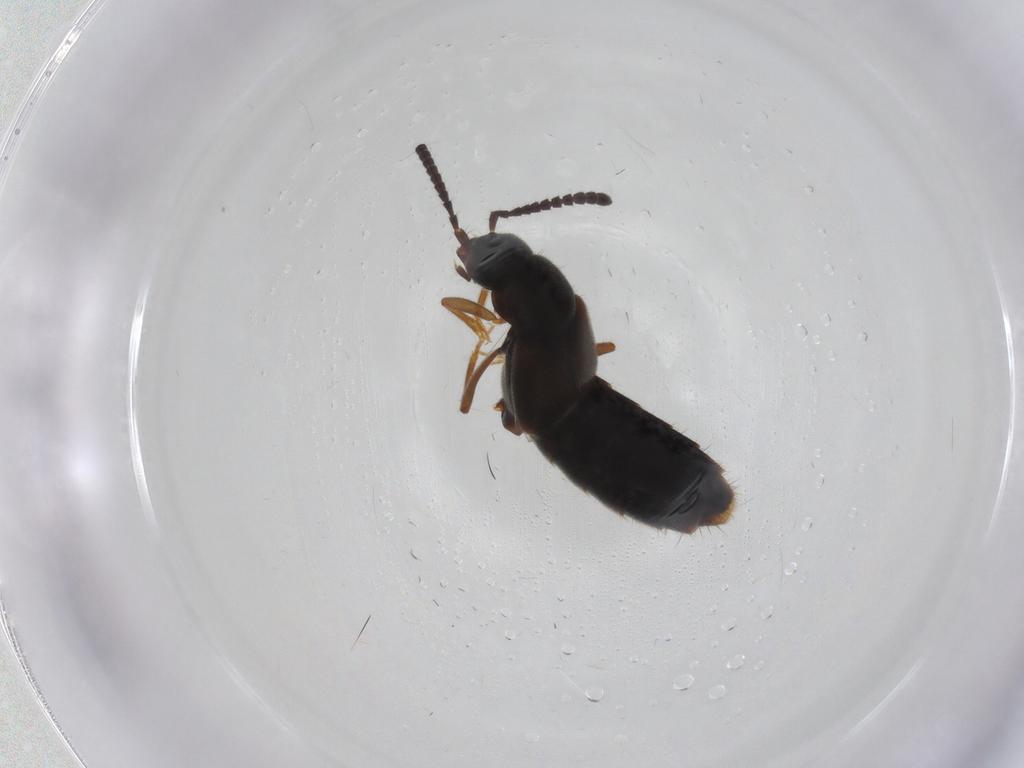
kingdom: Animalia
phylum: Arthropoda
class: Insecta
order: Coleoptera
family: Staphylinidae
